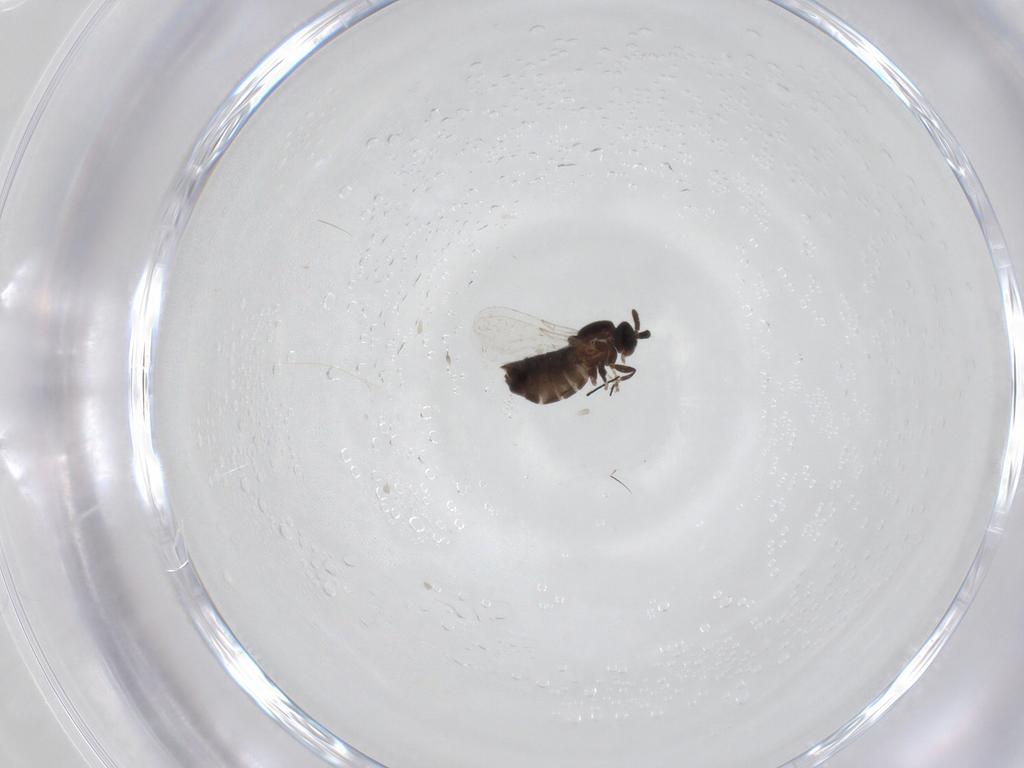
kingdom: Animalia
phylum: Arthropoda
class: Insecta
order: Diptera
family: Scatopsidae
